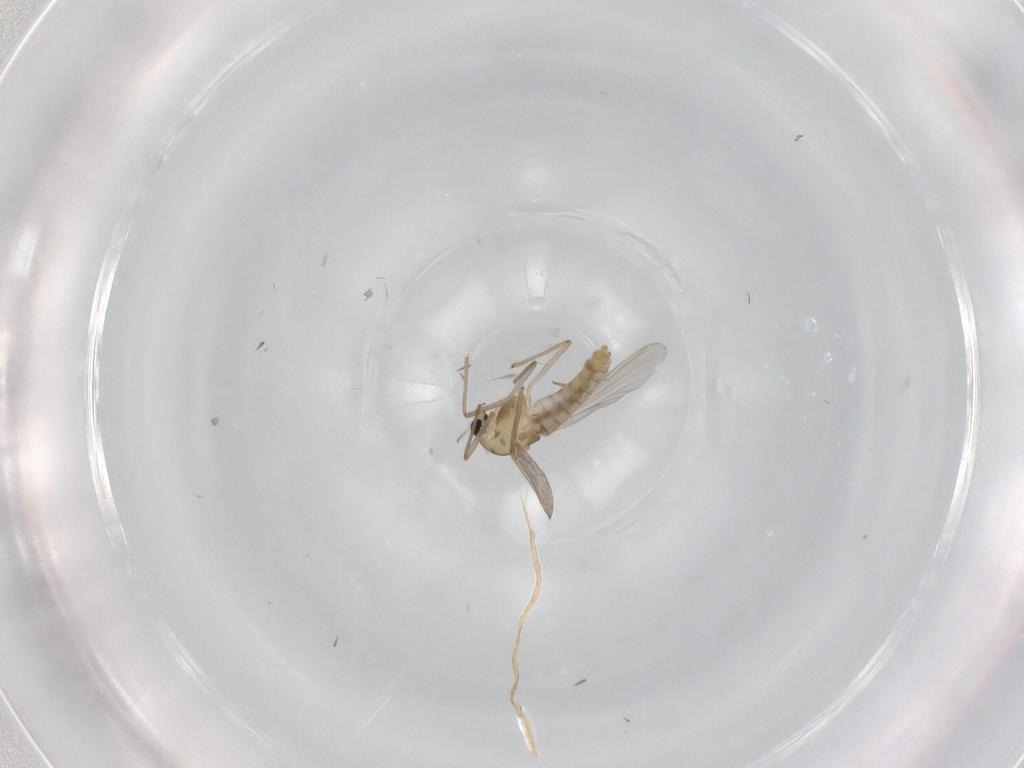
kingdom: Animalia
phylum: Arthropoda
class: Insecta
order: Diptera
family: Chironomidae
